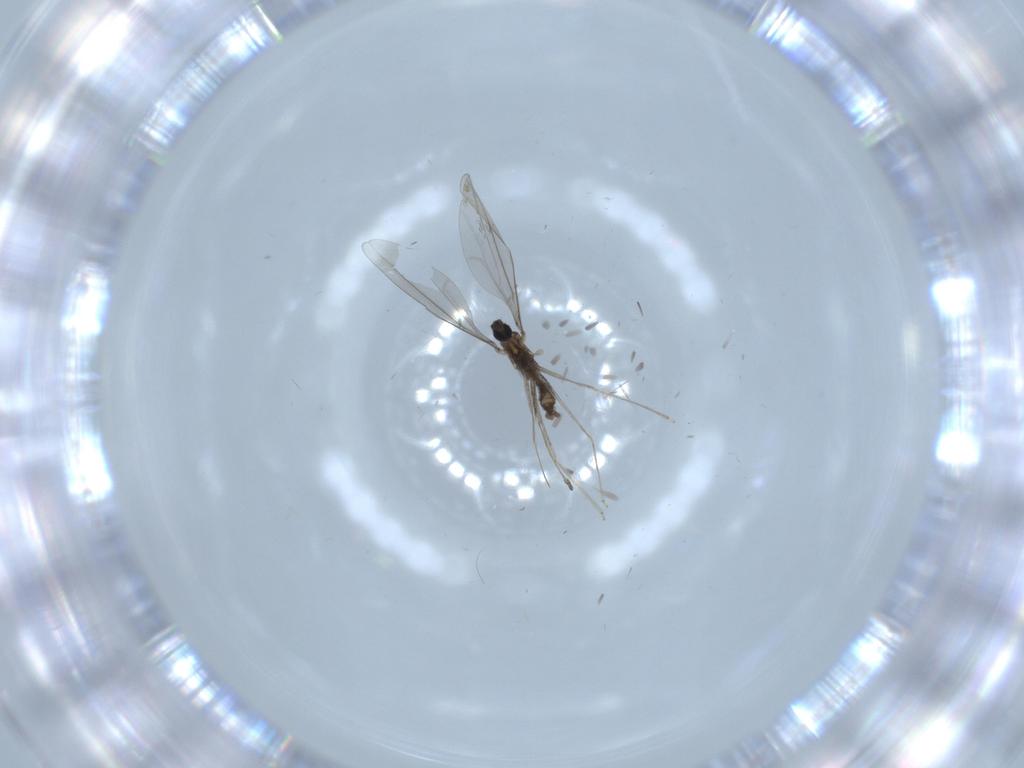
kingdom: Animalia
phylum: Arthropoda
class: Insecta
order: Diptera
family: Cecidomyiidae
